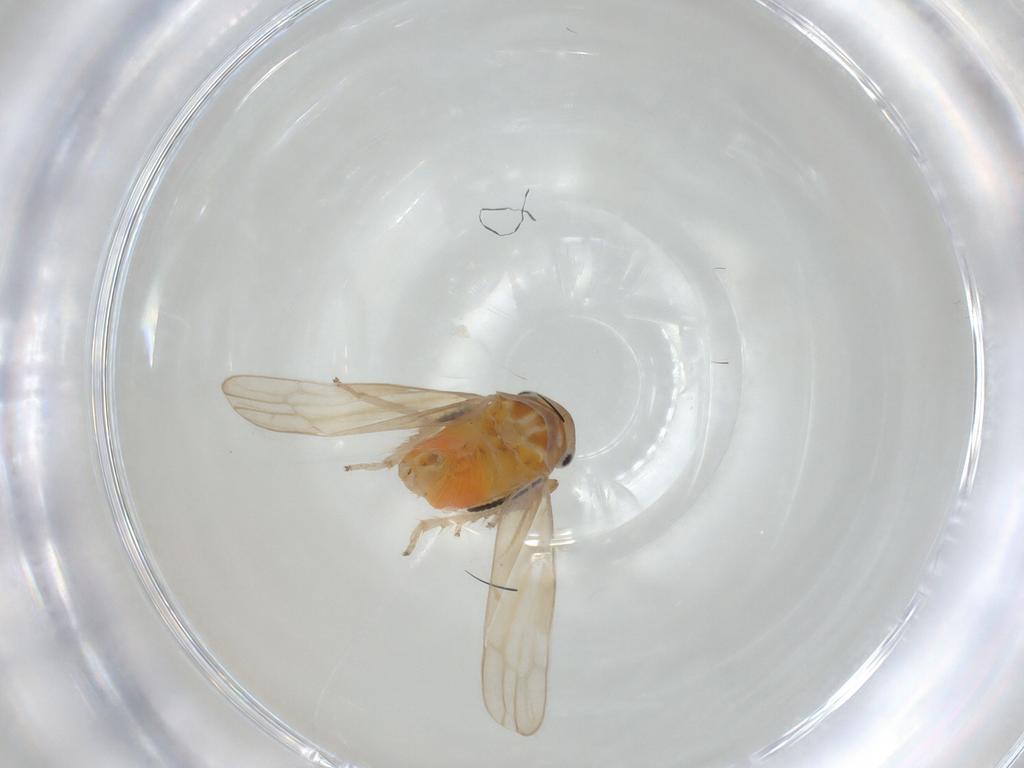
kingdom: Animalia
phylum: Arthropoda
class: Insecta
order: Hemiptera
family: Cicadellidae
